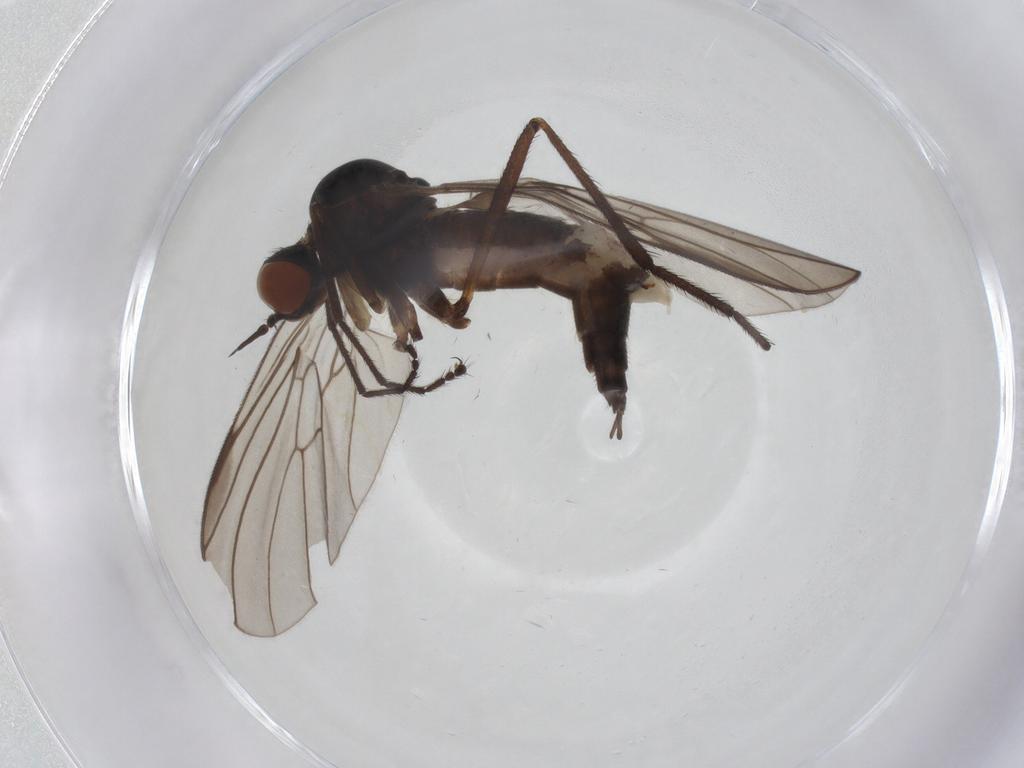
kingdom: Animalia
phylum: Arthropoda
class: Insecta
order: Diptera
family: Empididae
